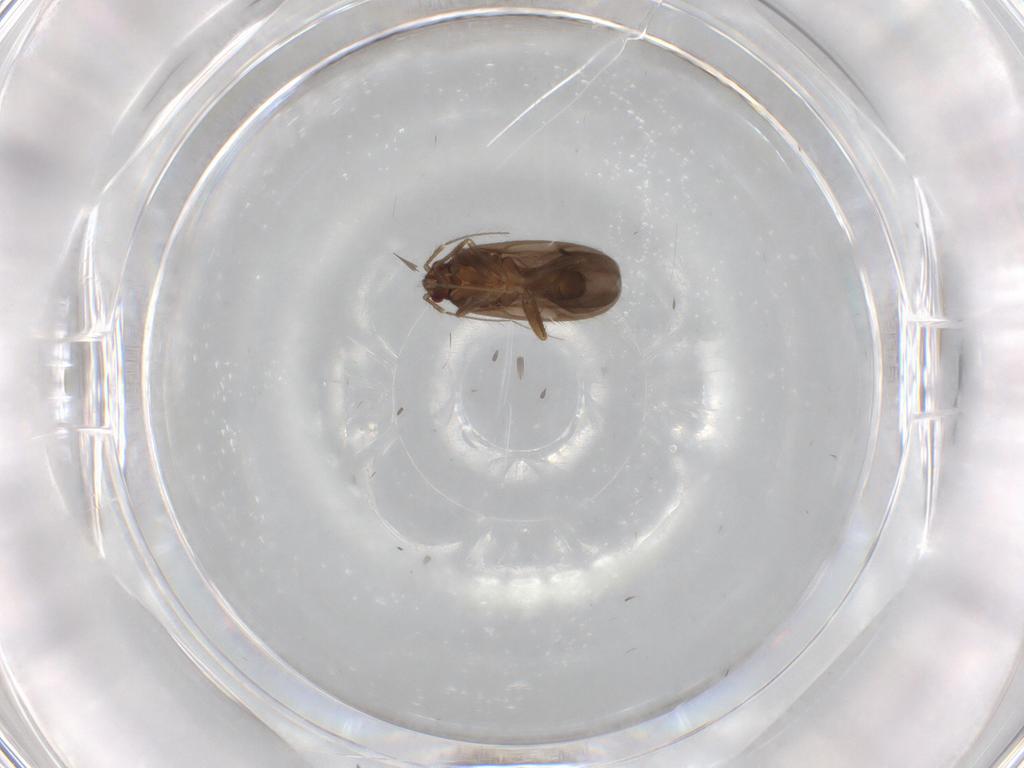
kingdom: Animalia
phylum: Arthropoda
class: Insecta
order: Hemiptera
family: Ceratocombidae
